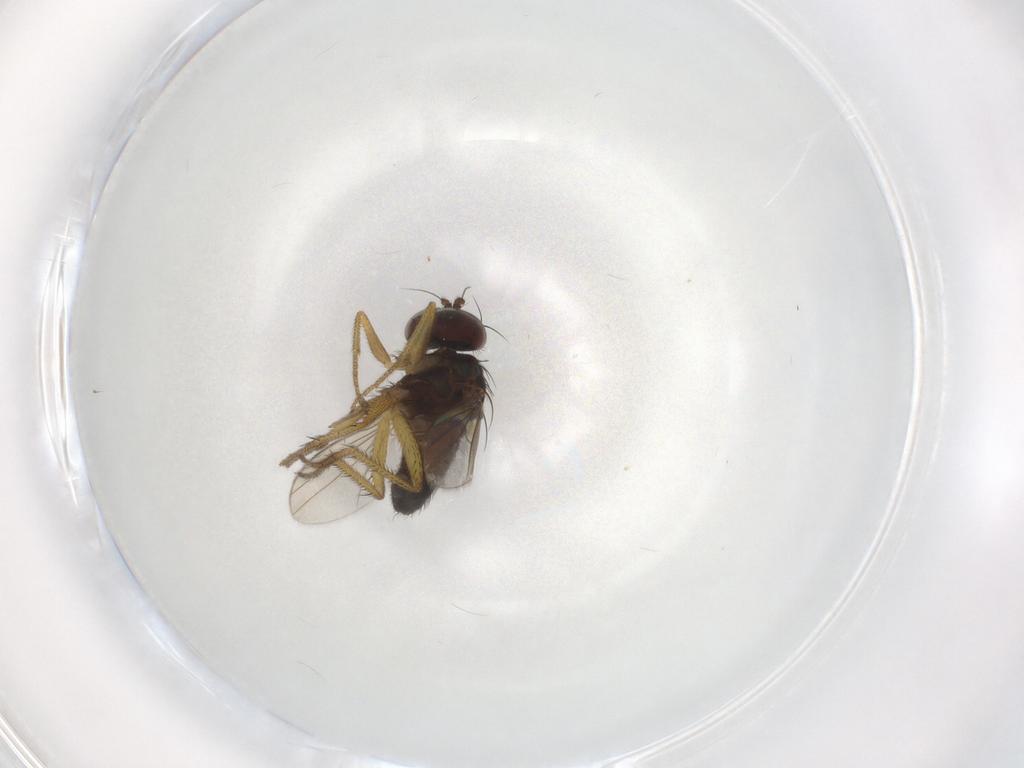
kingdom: Animalia
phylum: Arthropoda
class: Insecta
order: Diptera
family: Dolichopodidae
